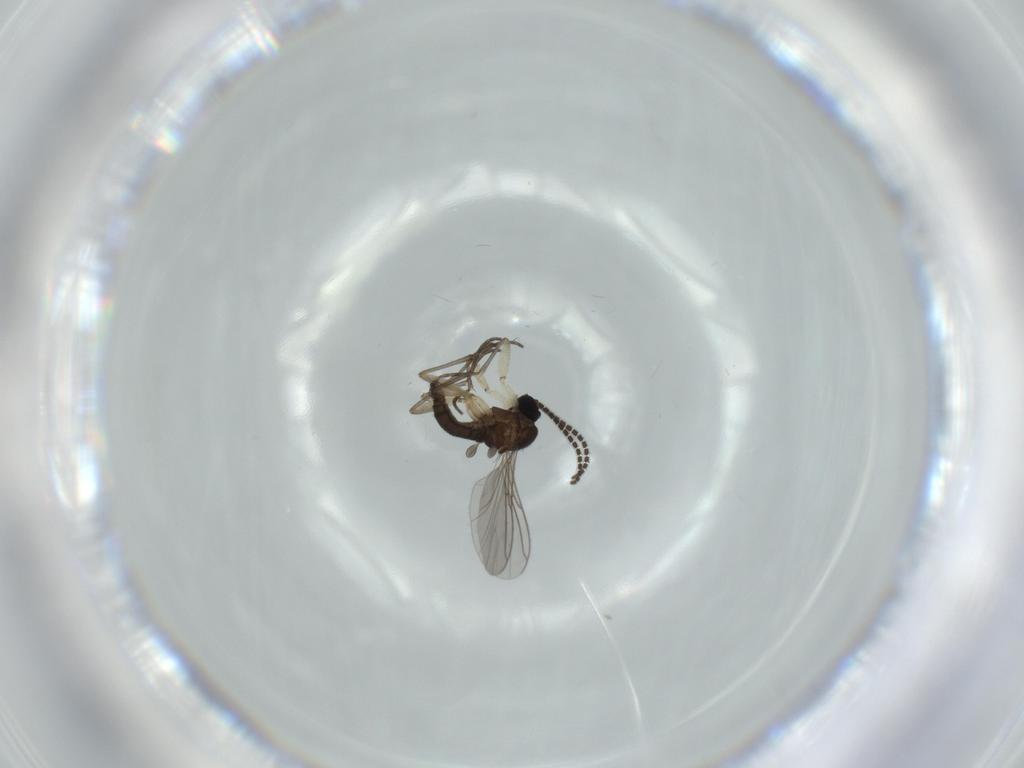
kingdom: Animalia
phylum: Arthropoda
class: Insecta
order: Diptera
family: Sciaridae
